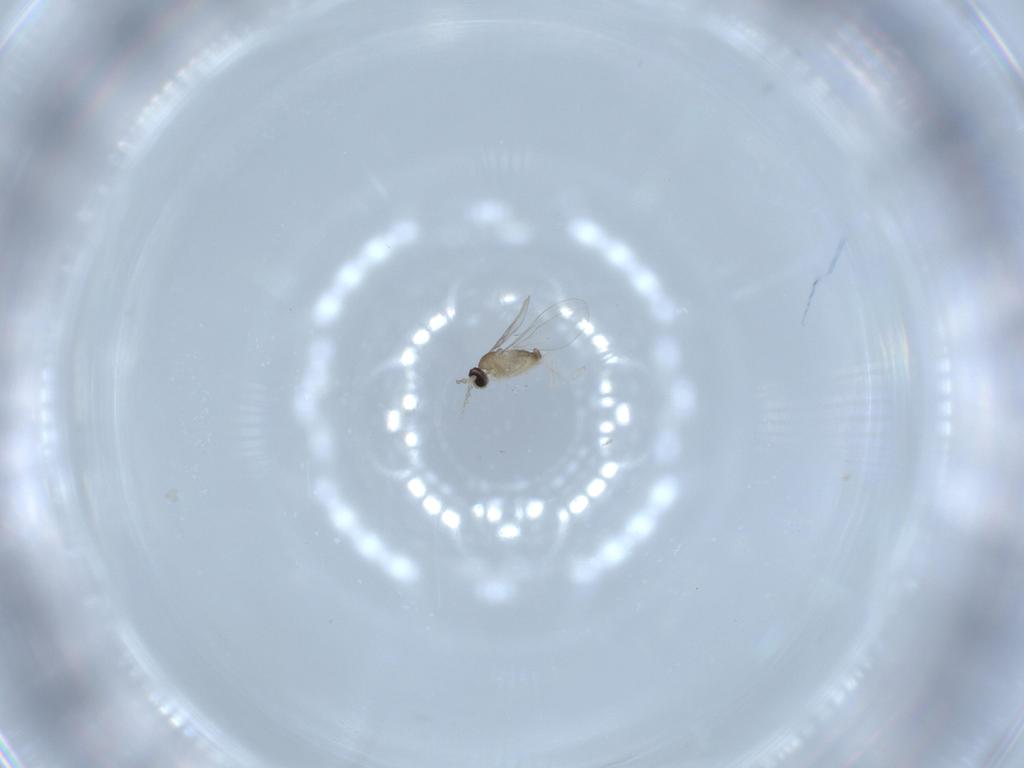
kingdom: Animalia
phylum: Arthropoda
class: Insecta
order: Diptera
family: Cecidomyiidae
